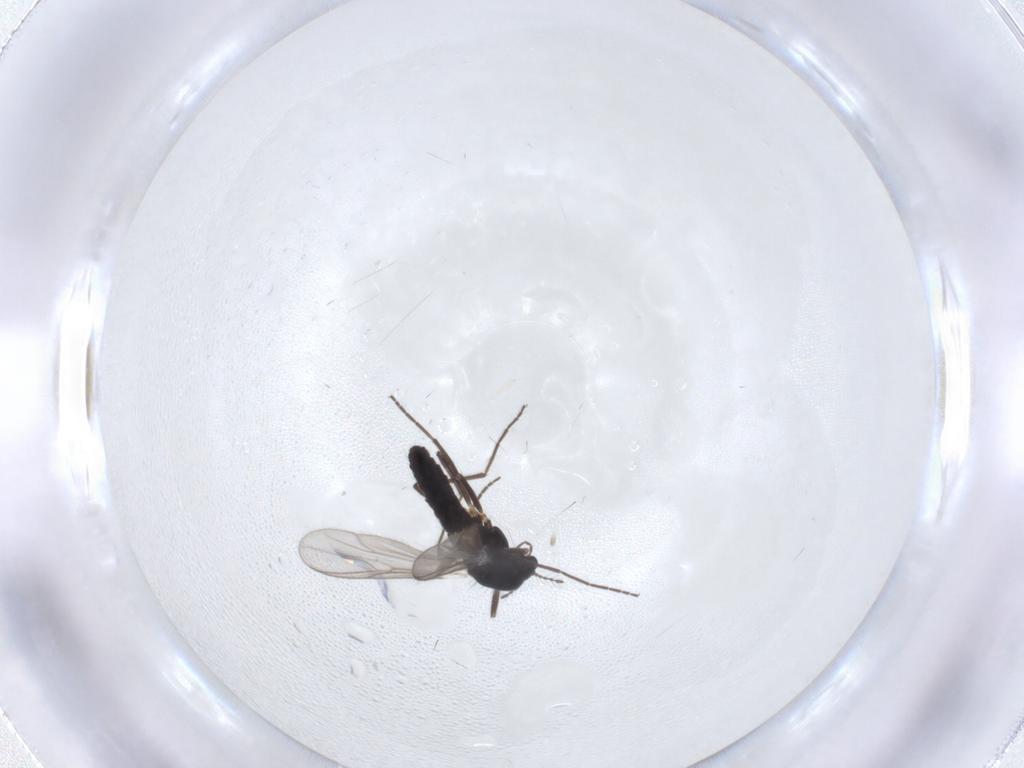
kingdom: Animalia
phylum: Arthropoda
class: Insecta
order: Diptera
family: Chironomidae
